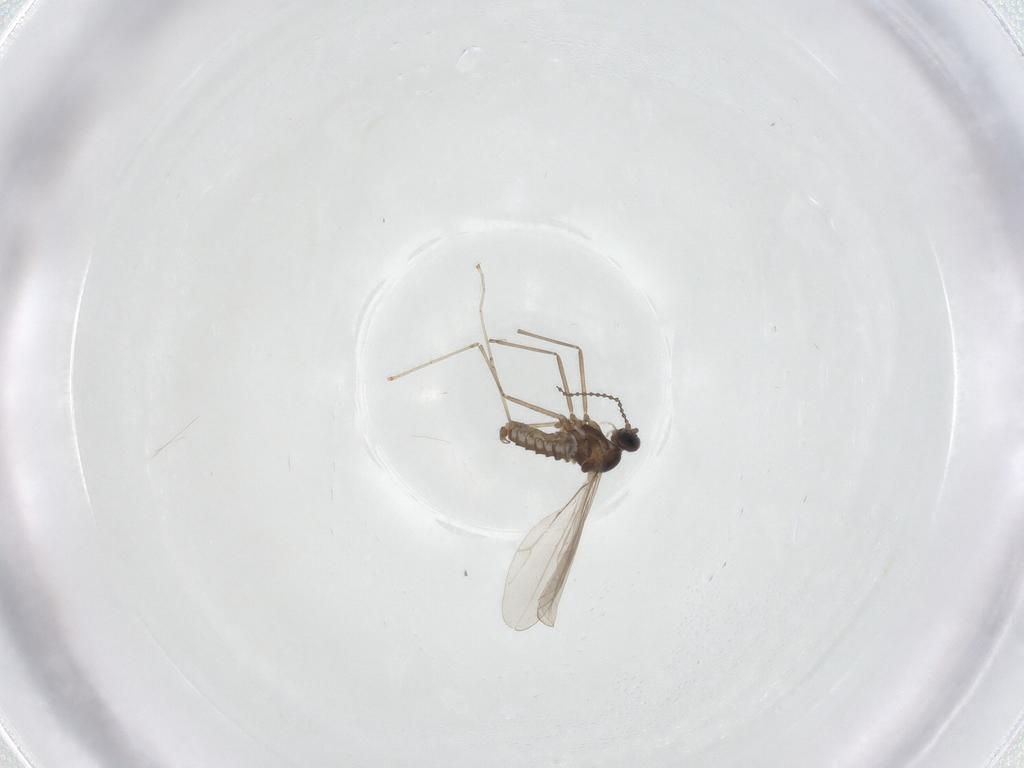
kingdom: Animalia
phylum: Arthropoda
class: Insecta
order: Diptera
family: Cecidomyiidae
